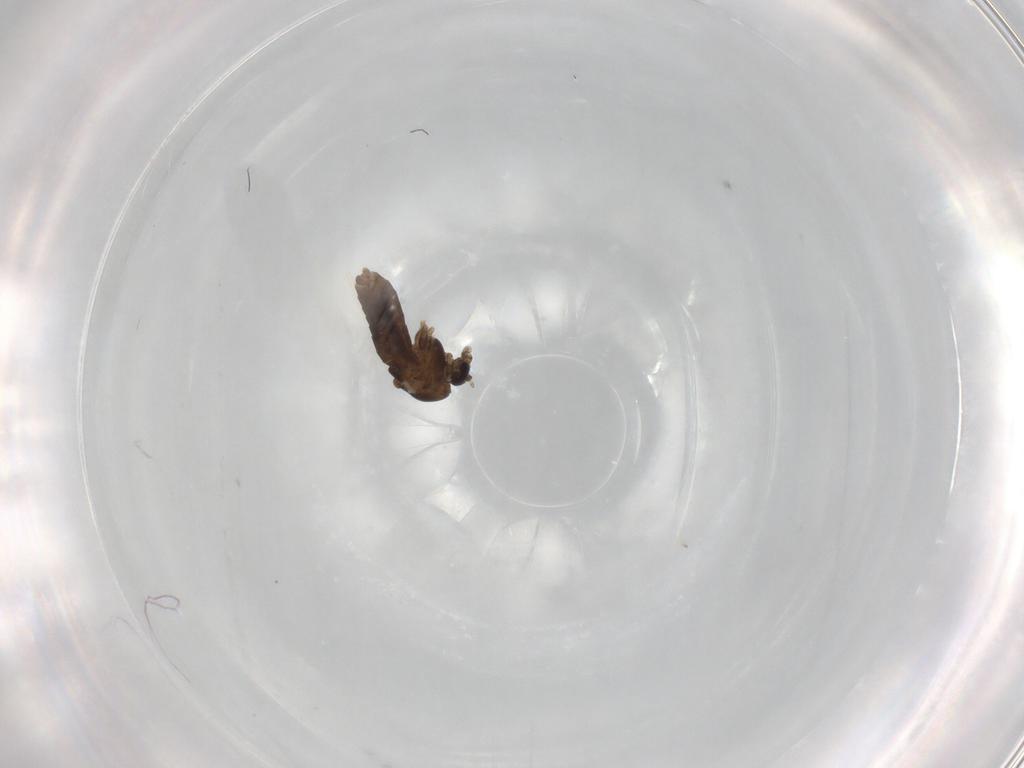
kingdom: Animalia
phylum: Arthropoda
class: Insecta
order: Diptera
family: Chironomidae
